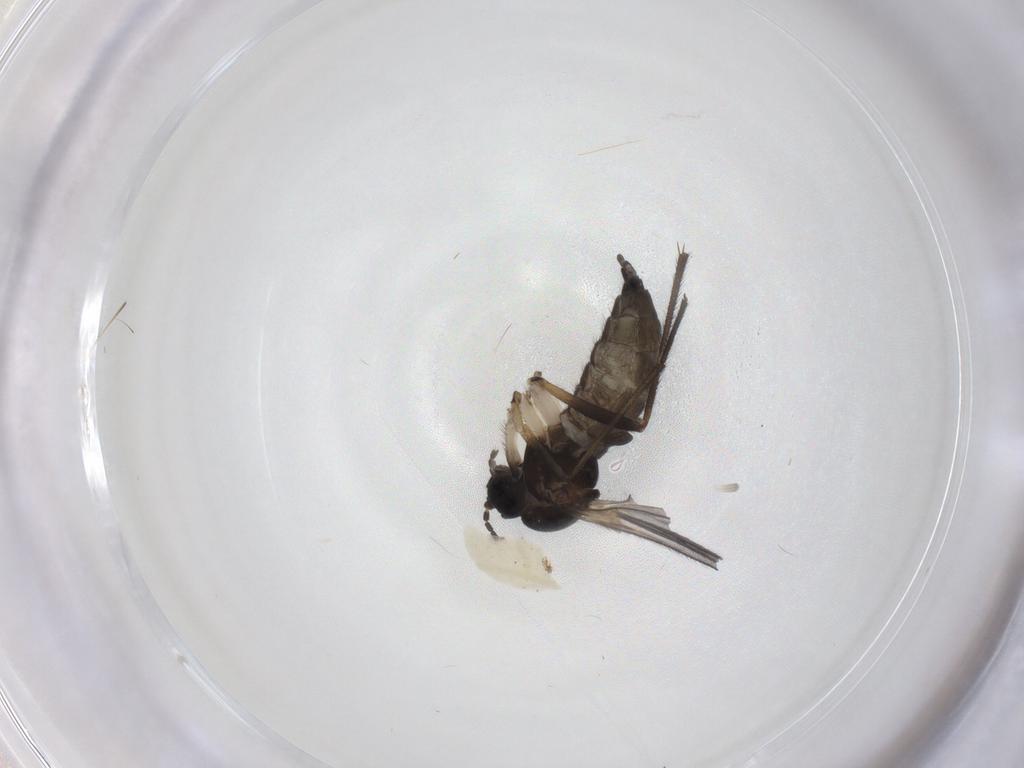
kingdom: Animalia
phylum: Arthropoda
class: Insecta
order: Diptera
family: Sciaridae
